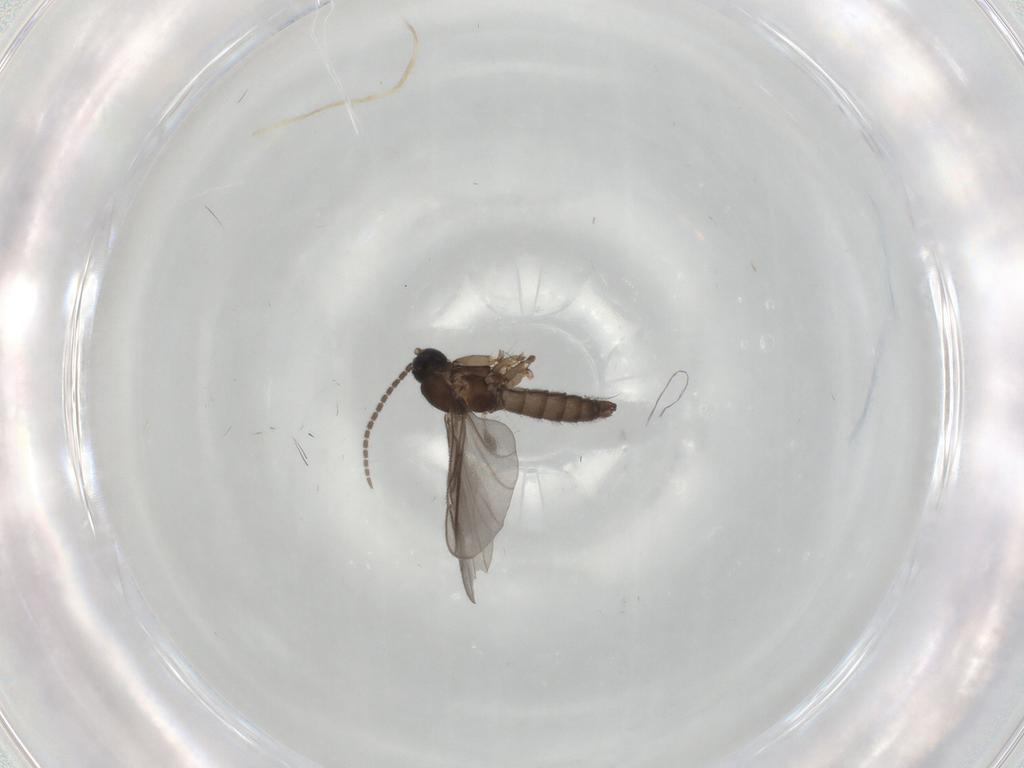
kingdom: Animalia
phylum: Arthropoda
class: Insecta
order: Diptera
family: Sciaridae
